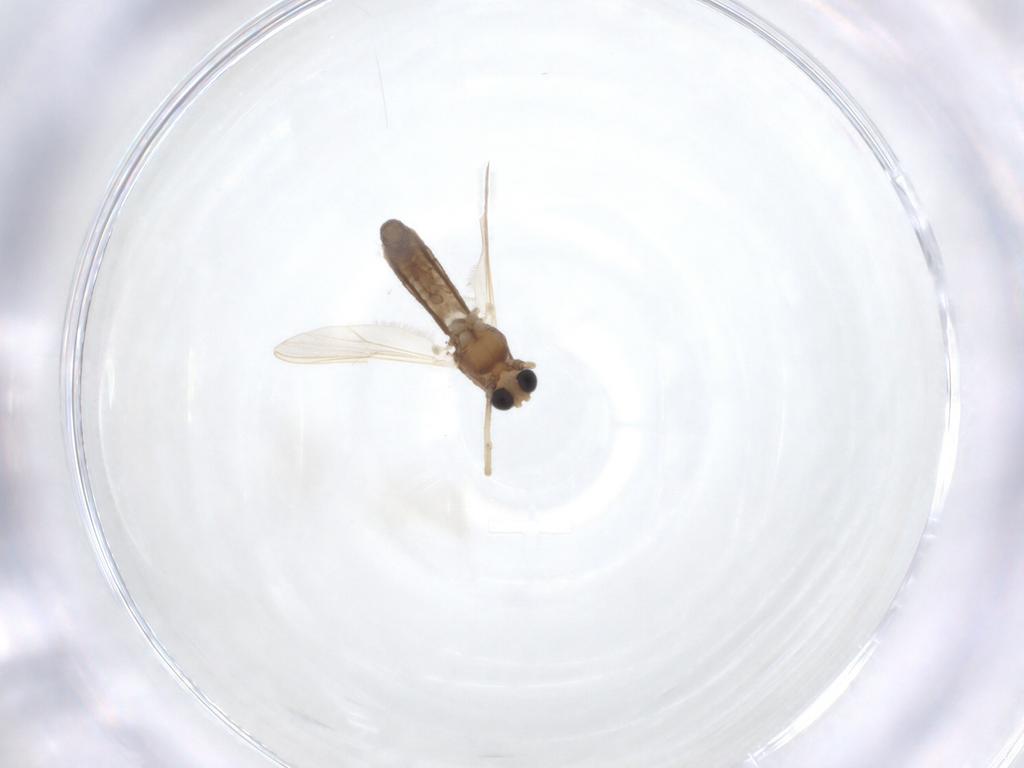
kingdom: Animalia
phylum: Arthropoda
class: Insecta
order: Diptera
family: Chironomidae
